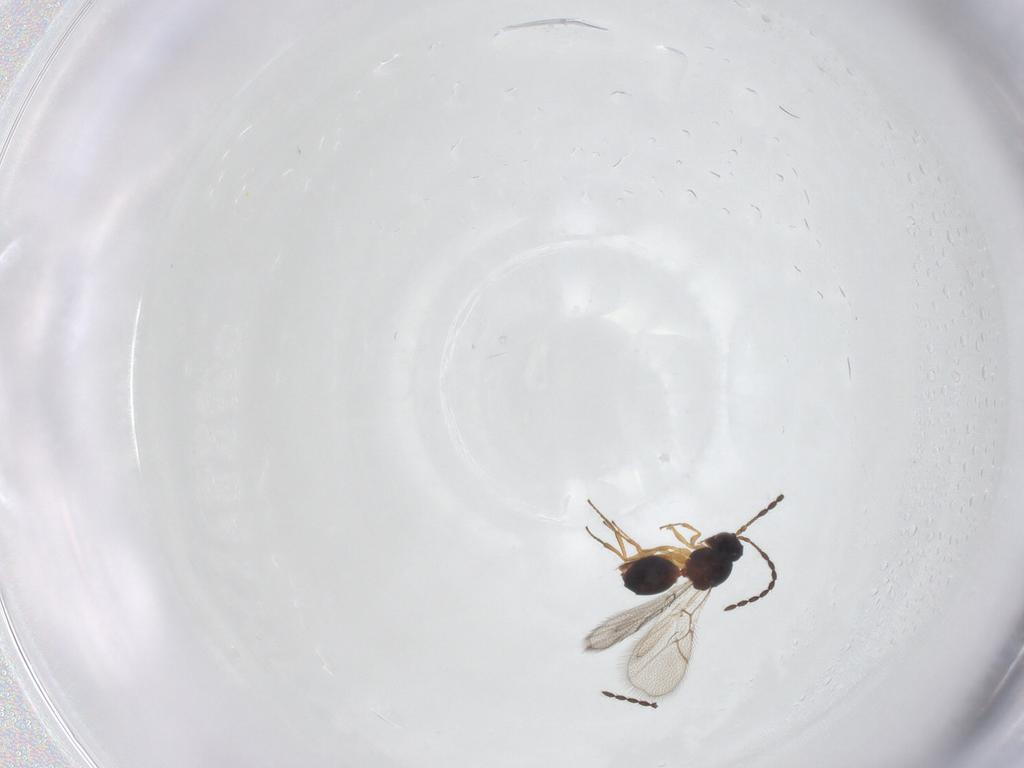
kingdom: Animalia
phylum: Arthropoda
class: Insecta
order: Hymenoptera
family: Figitidae
